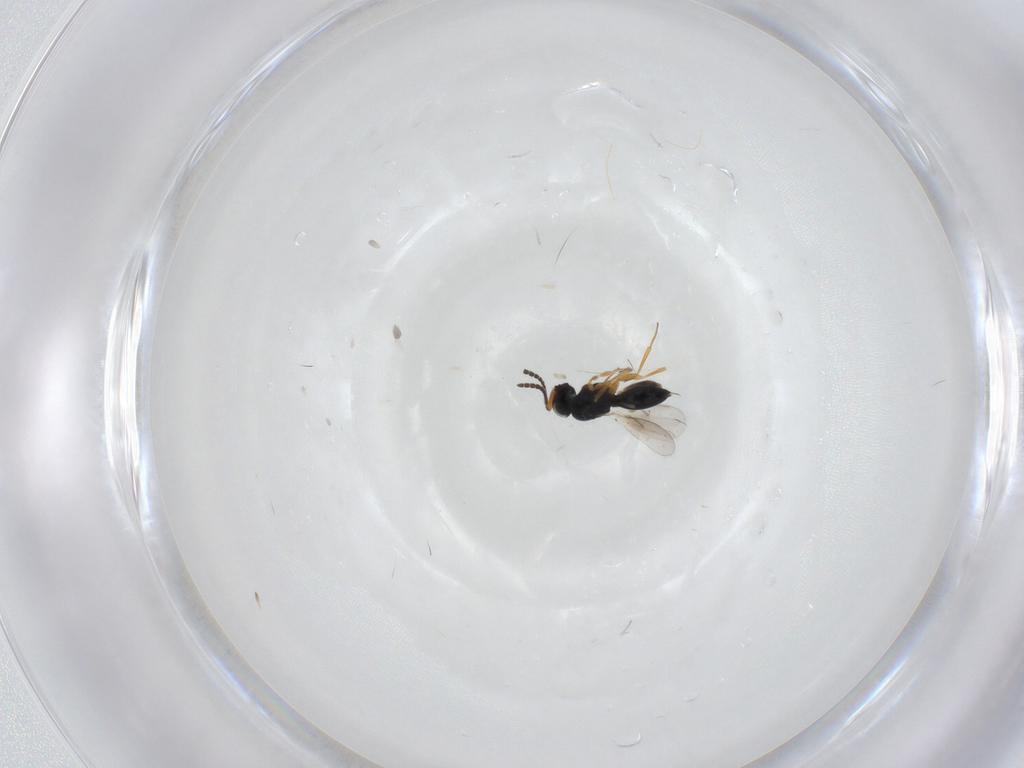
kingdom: Animalia
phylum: Arthropoda
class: Insecta
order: Hymenoptera
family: Scelionidae
